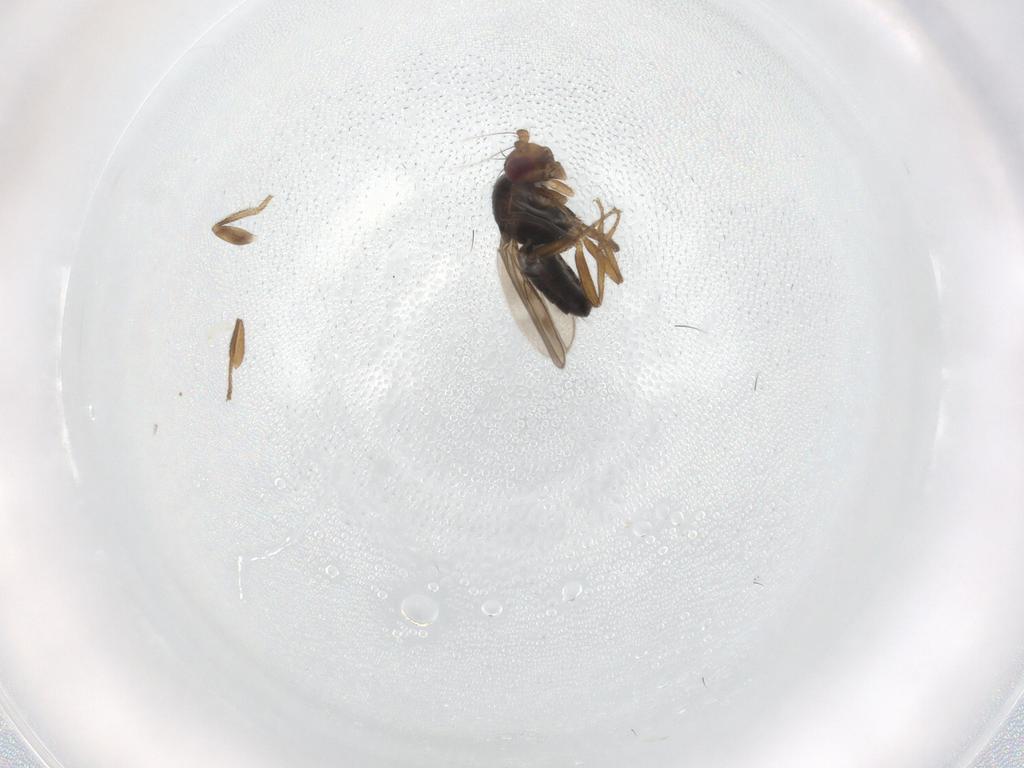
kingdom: Animalia
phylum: Arthropoda
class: Insecta
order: Diptera
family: Sphaeroceridae
